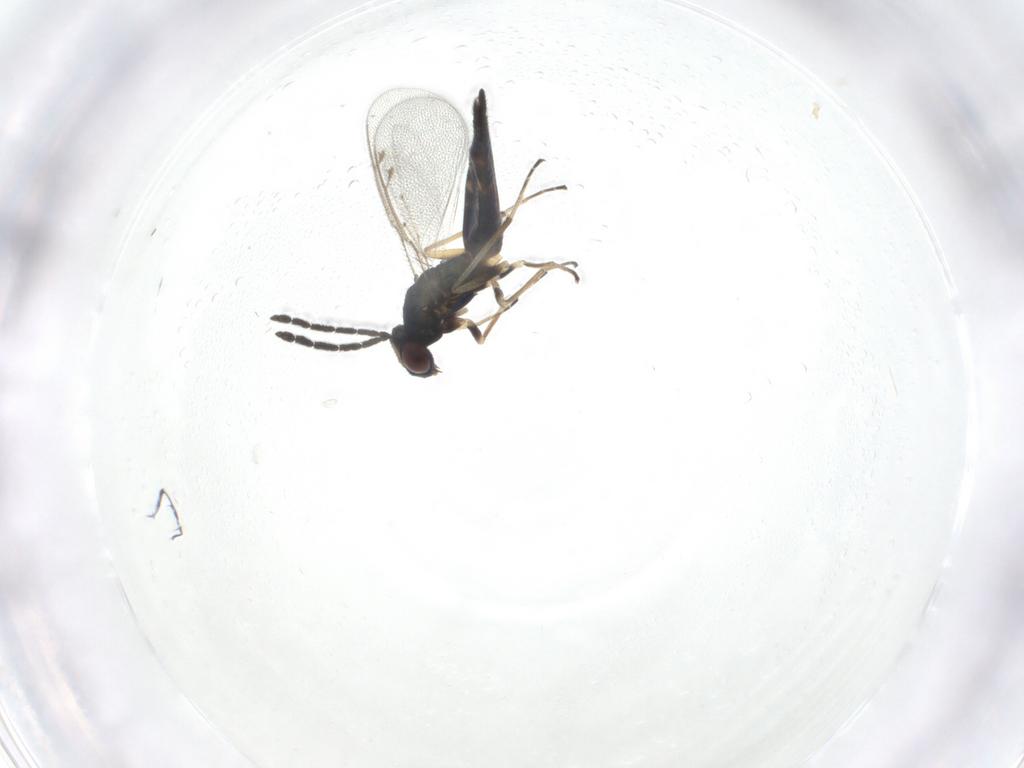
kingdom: Animalia
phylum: Arthropoda
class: Insecta
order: Hymenoptera
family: Eulophidae
